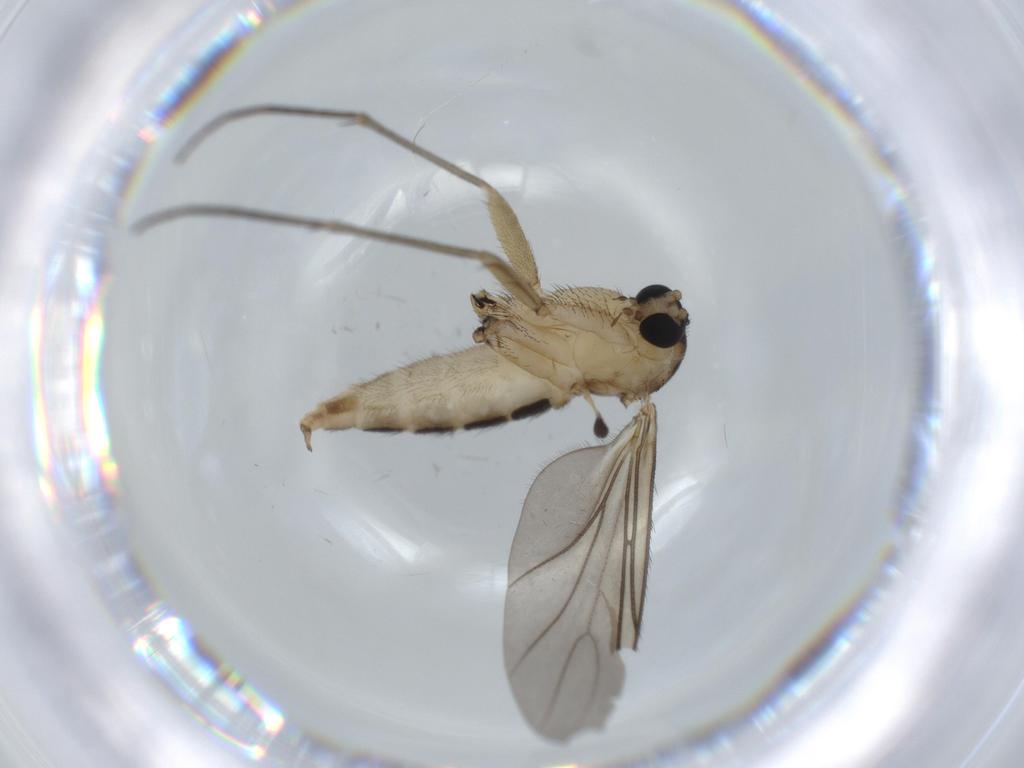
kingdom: Animalia
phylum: Arthropoda
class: Insecta
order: Diptera
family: Sciaridae
